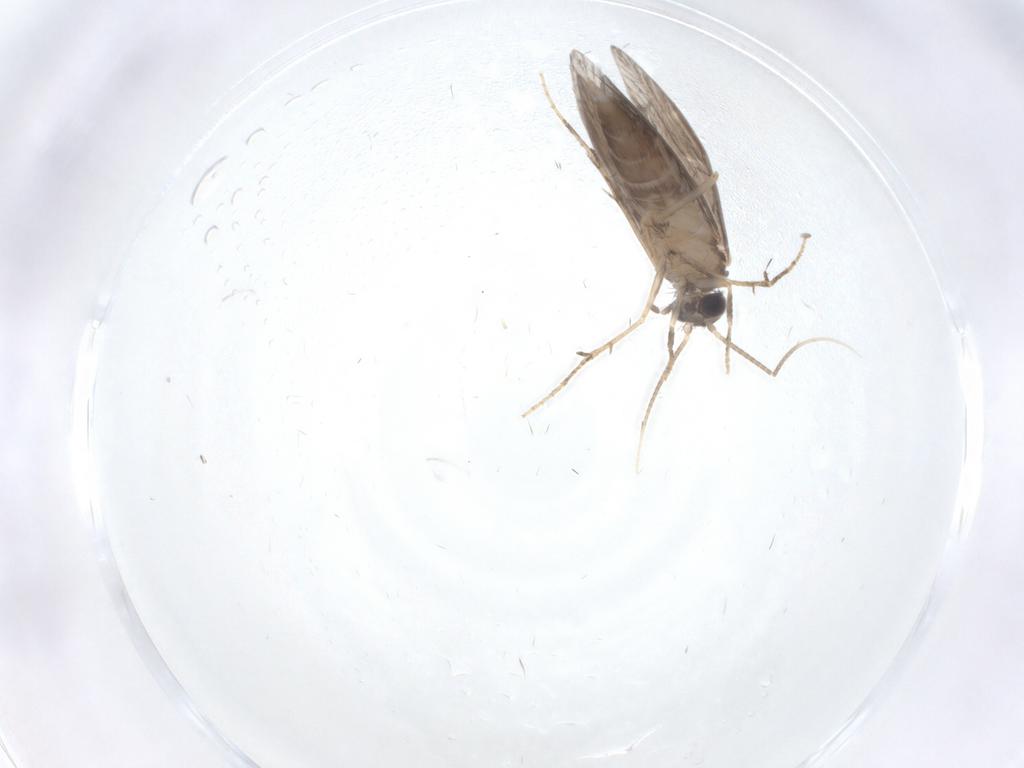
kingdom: Animalia
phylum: Arthropoda
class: Insecta
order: Trichoptera
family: Hydroptilidae
